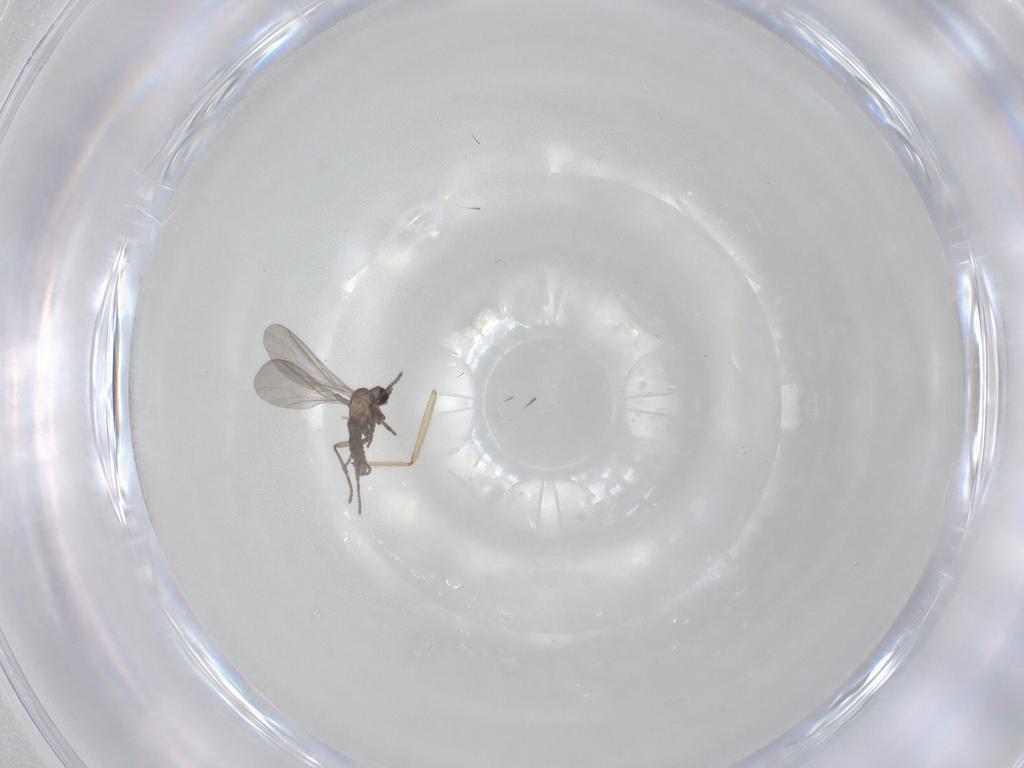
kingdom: Animalia
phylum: Arthropoda
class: Insecta
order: Diptera
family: Chironomidae
